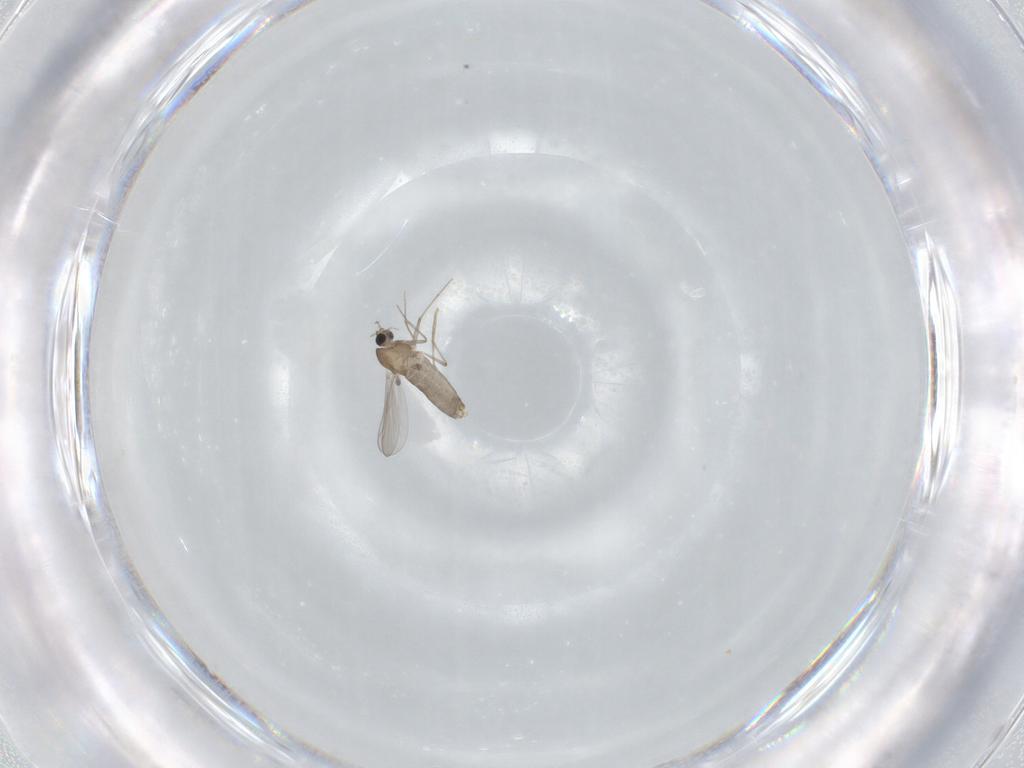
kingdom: Animalia
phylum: Arthropoda
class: Insecta
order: Diptera
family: Chironomidae
